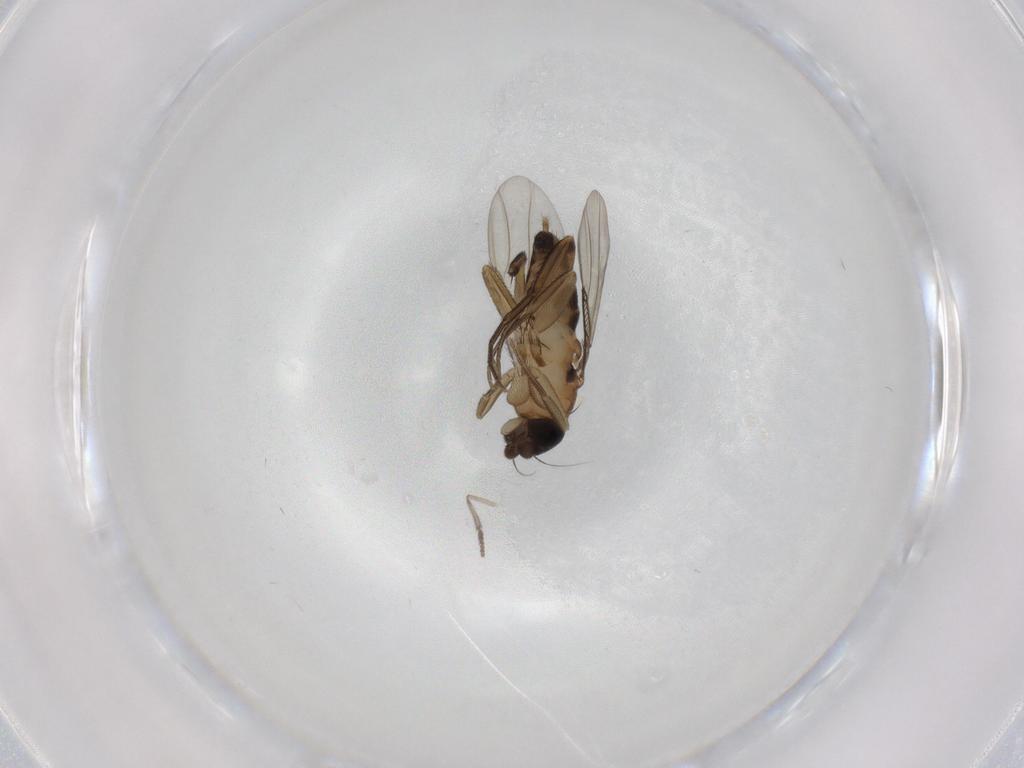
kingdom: Animalia
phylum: Arthropoda
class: Insecta
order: Diptera
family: Phoridae
